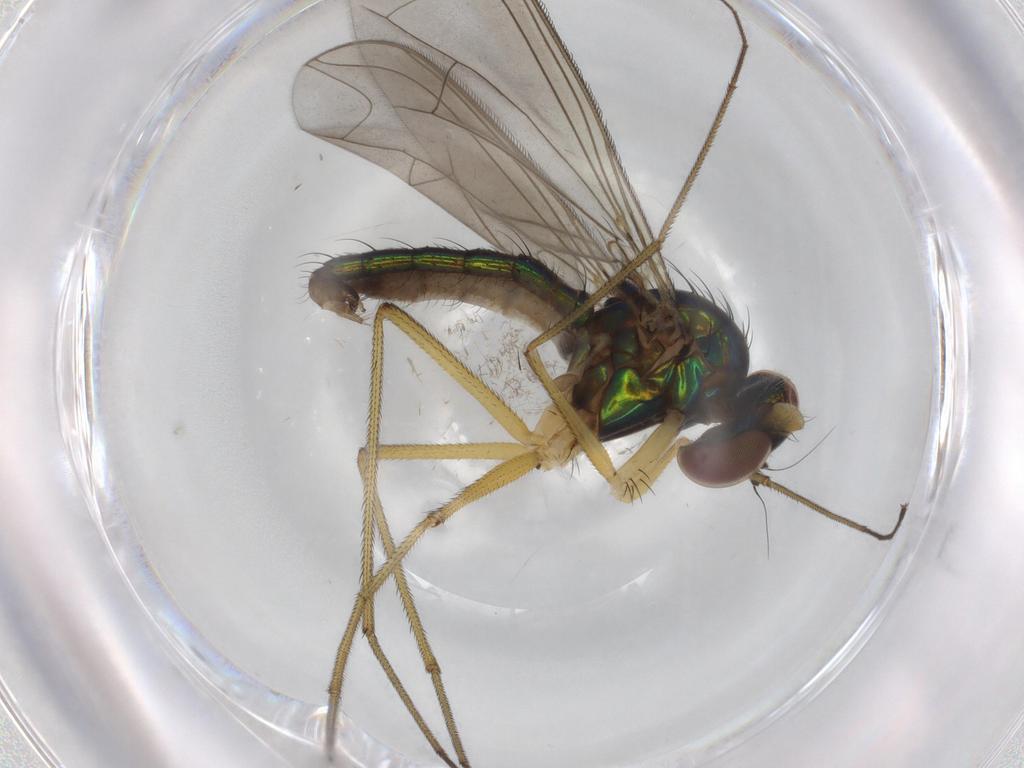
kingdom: Animalia
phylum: Arthropoda
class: Insecta
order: Diptera
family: Dolichopodidae
